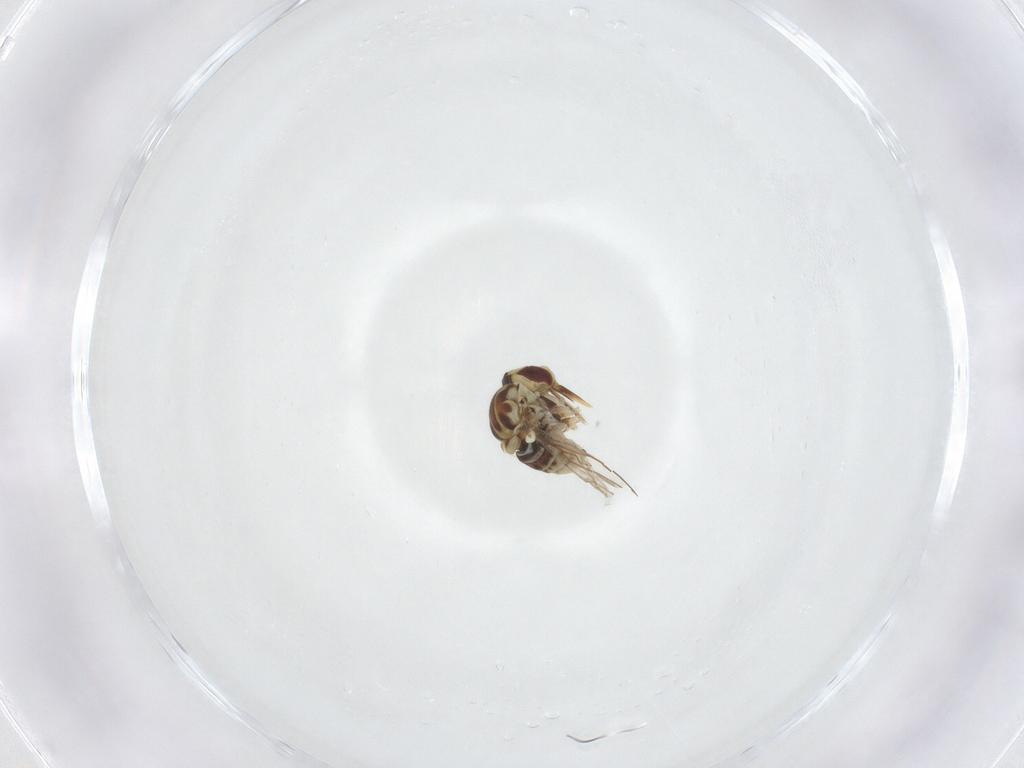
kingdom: Animalia
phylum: Arthropoda
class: Insecta
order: Diptera
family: Bombyliidae
